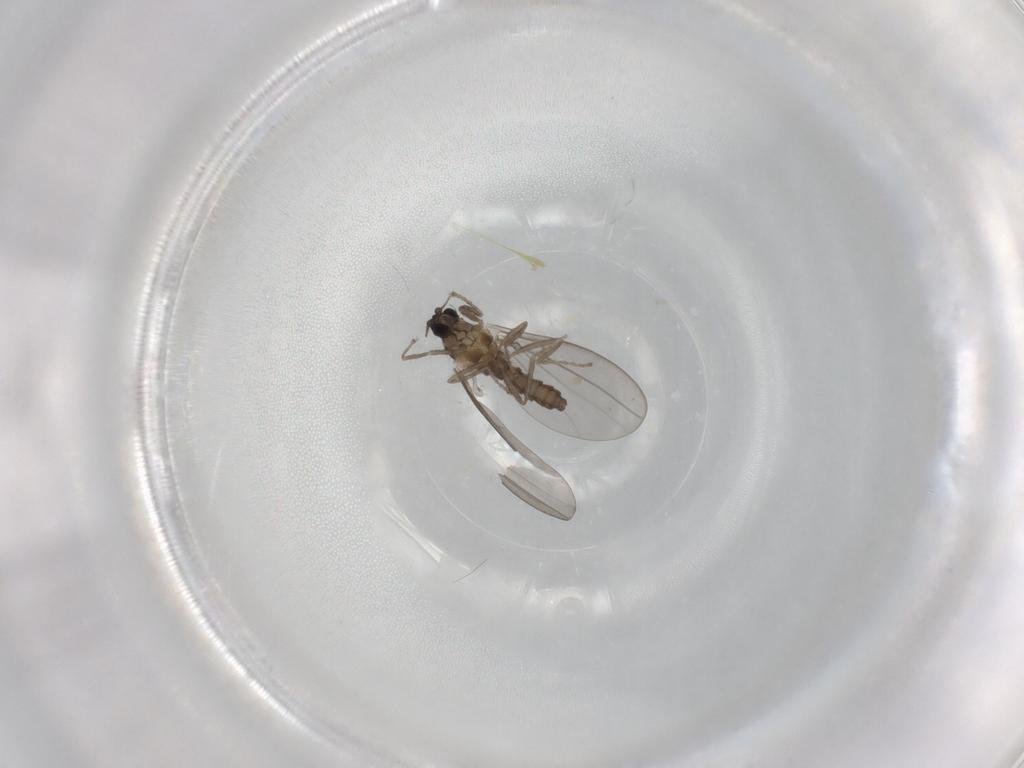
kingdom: Animalia
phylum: Arthropoda
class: Insecta
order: Diptera
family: Cecidomyiidae
